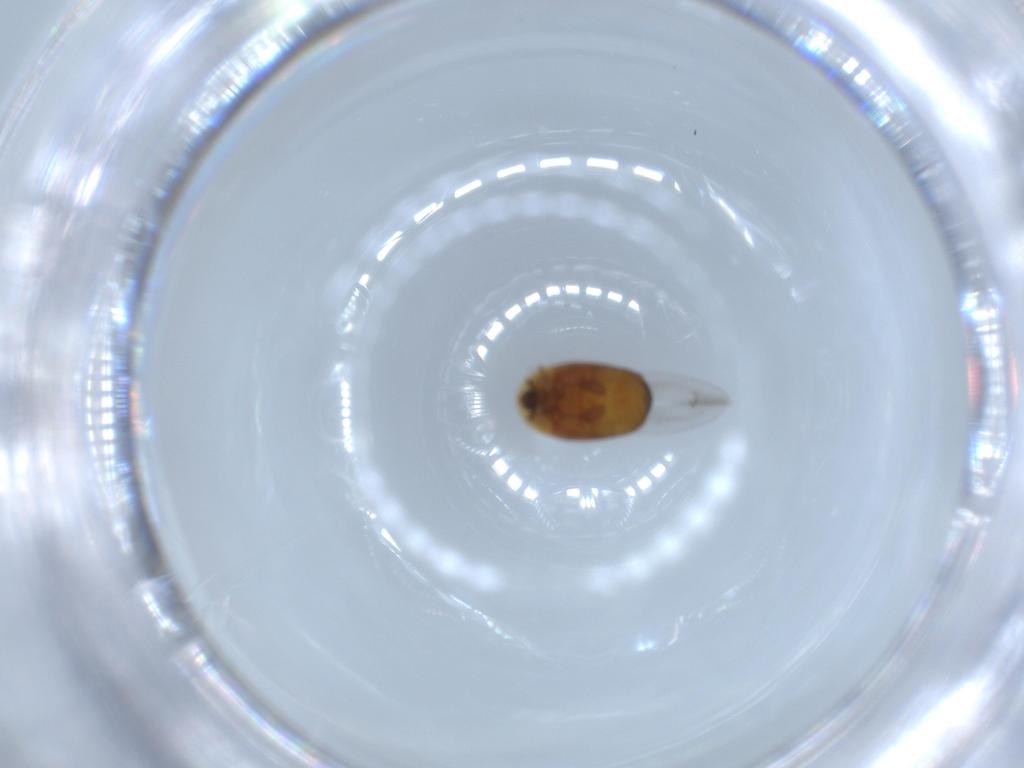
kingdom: Animalia
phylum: Arthropoda
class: Insecta
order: Coleoptera
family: Corylophidae
